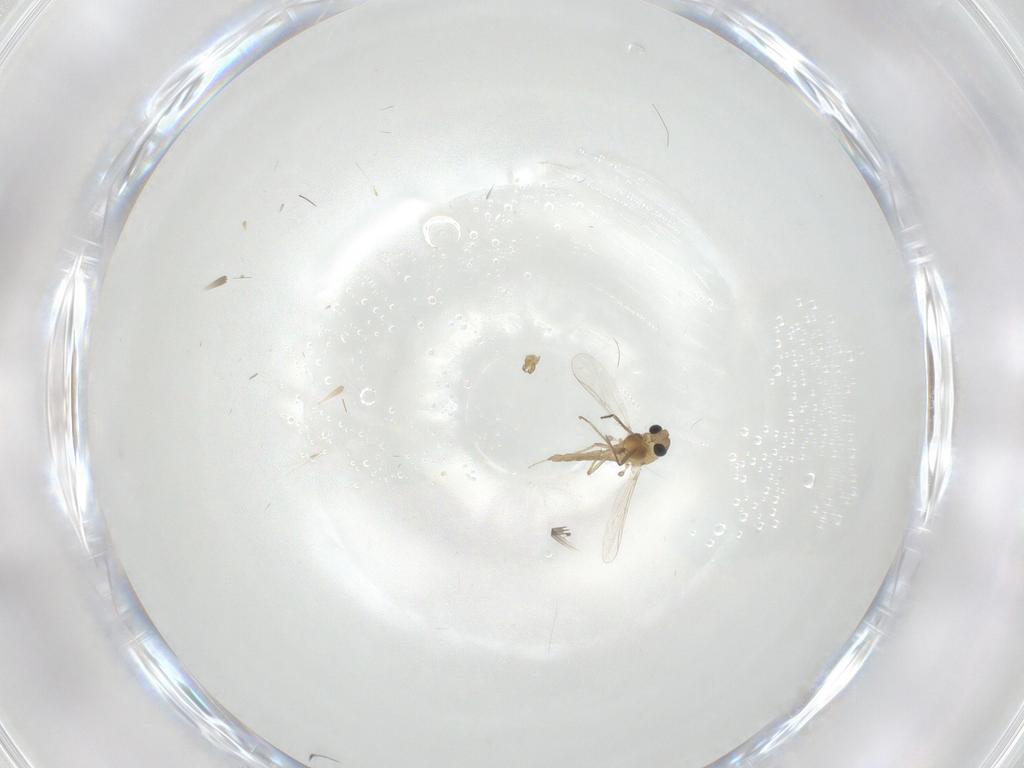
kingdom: Animalia
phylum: Arthropoda
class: Insecta
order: Diptera
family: Chironomidae
